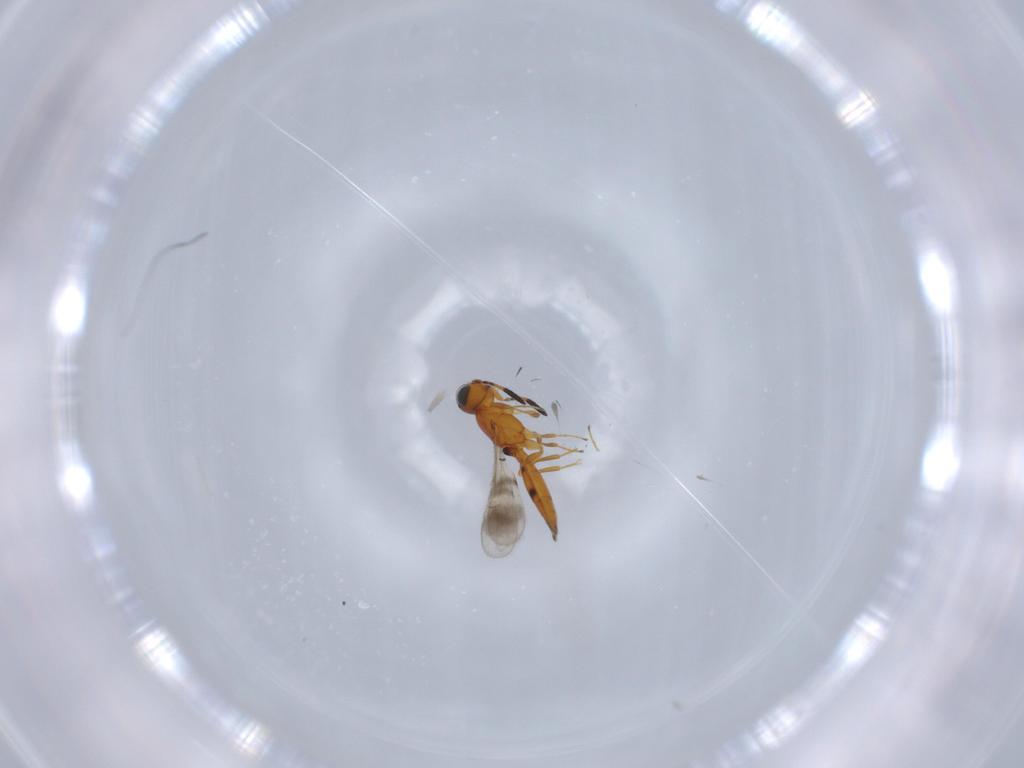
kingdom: Animalia
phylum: Arthropoda
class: Insecta
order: Hymenoptera
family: Scelionidae
